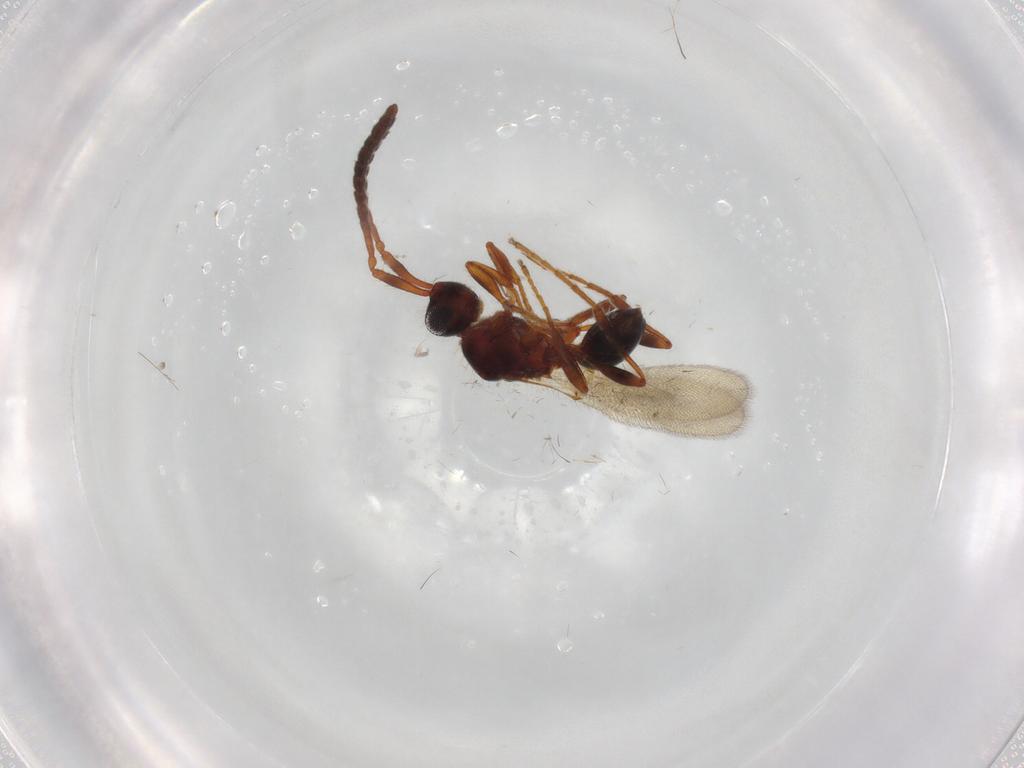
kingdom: Animalia
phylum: Arthropoda
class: Insecta
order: Hymenoptera
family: Diapriidae
